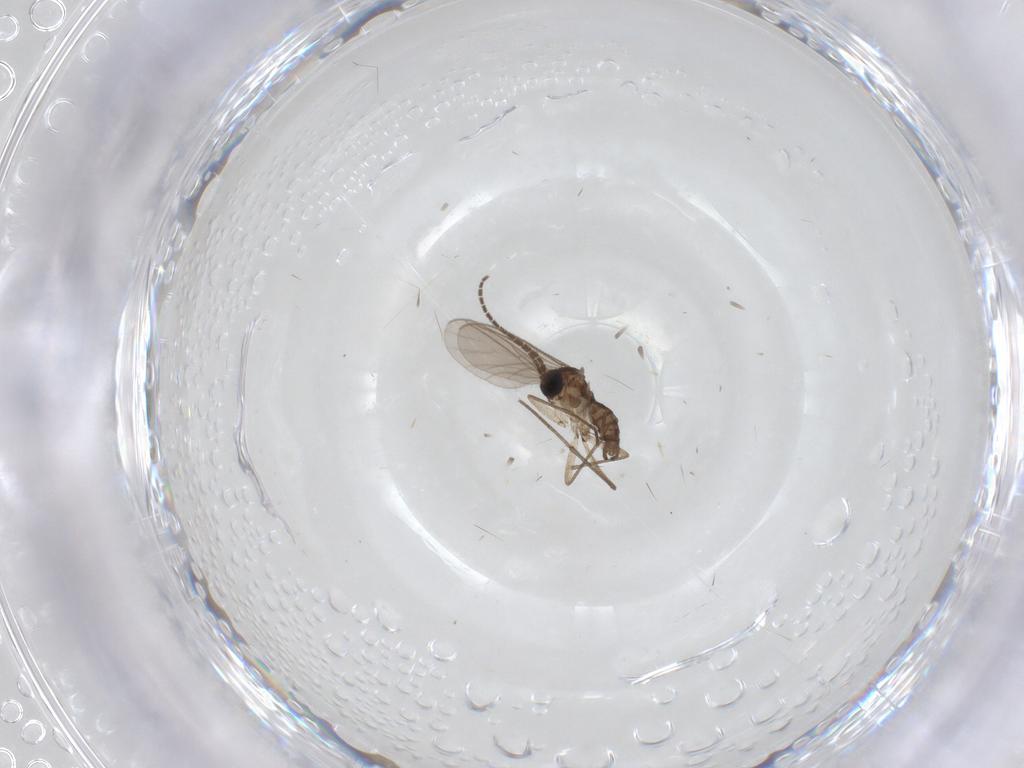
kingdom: Animalia
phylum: Arthropoda
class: Insecta
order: Diptera
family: Sciaridae
